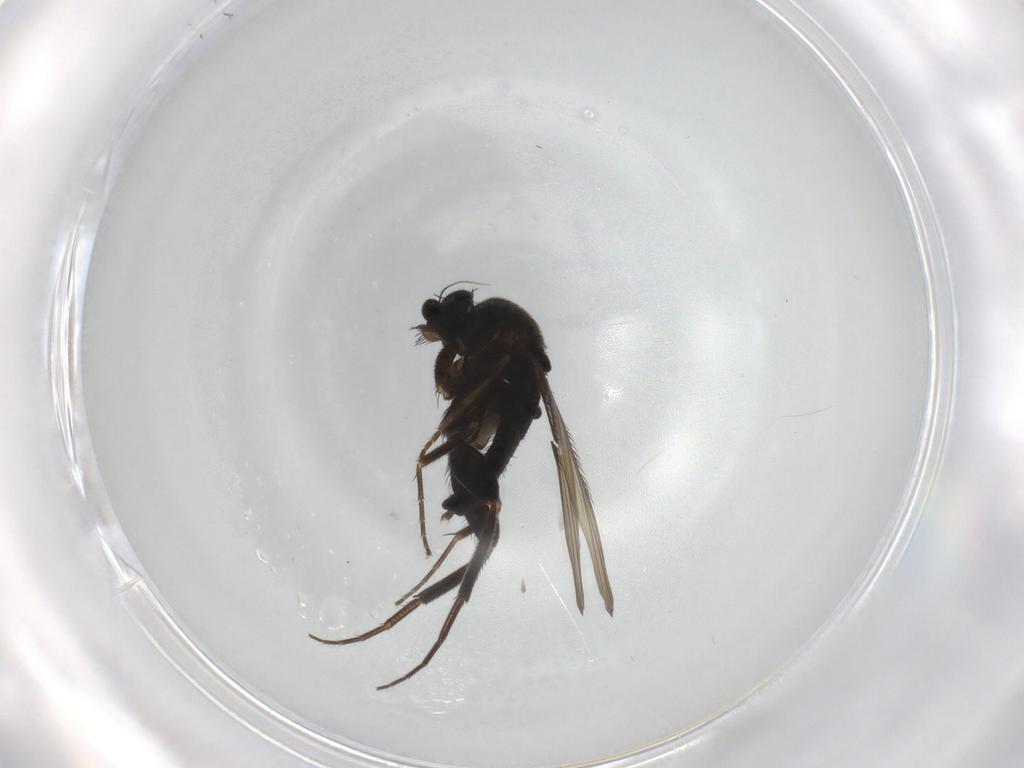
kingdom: Animalia
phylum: Arthropoda
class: Insecta
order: Diptera
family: Phoridae
